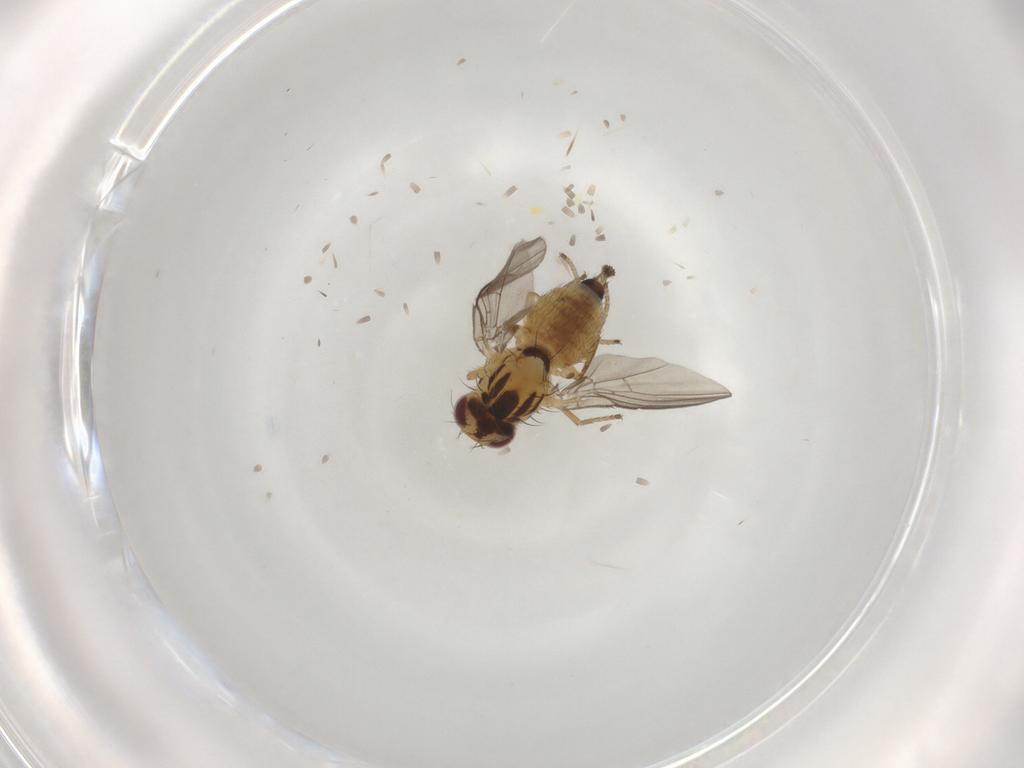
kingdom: Animalia
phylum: Arthropoda
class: Insecta
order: Diptera
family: Agromyzidae
